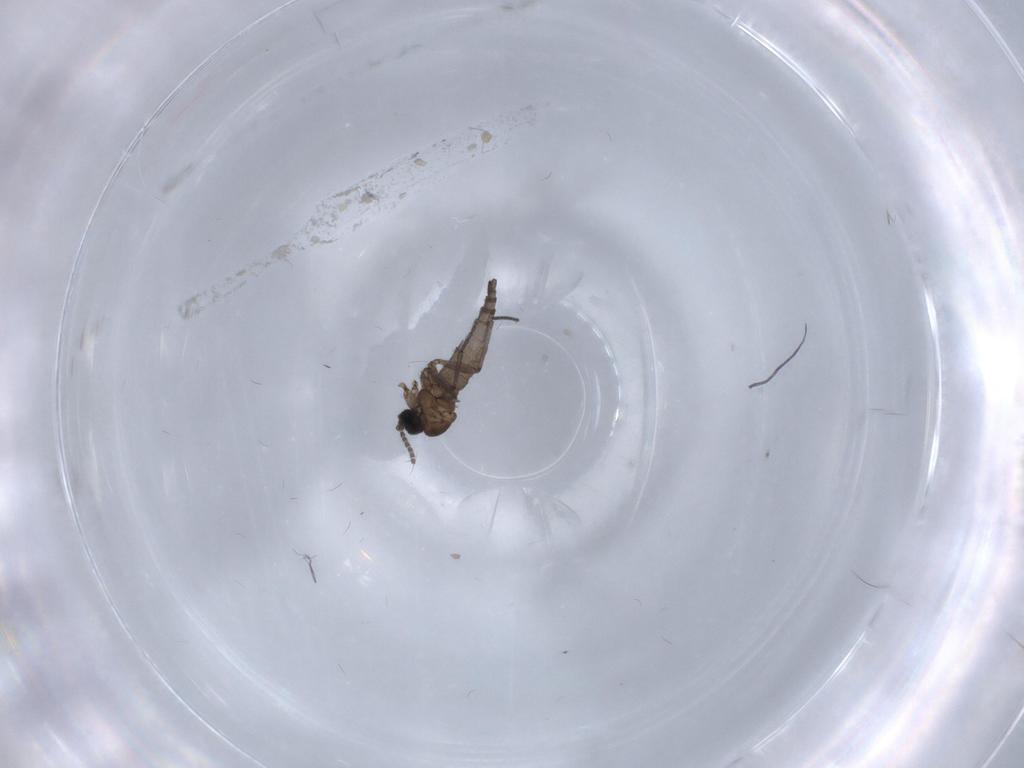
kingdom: Animalia
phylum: Arthropoda
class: Insecta
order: Diptera
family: Sciaridae
